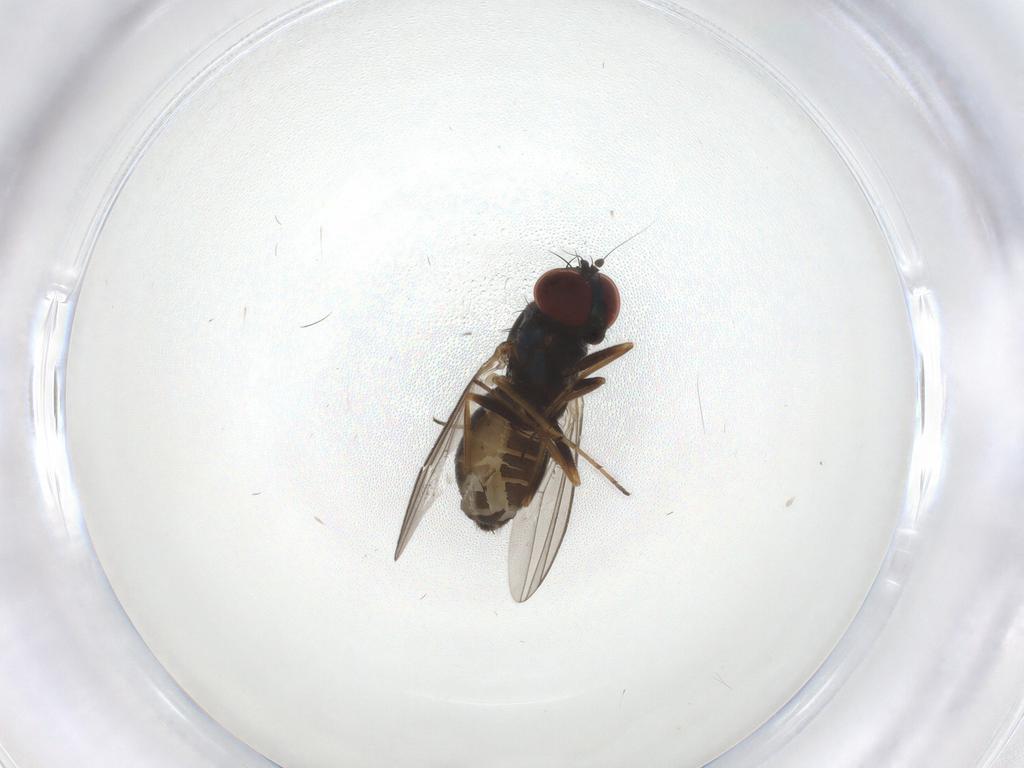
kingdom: Animalia
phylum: Arthropoda
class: Insecta
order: Diptera
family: Dolichopodidae
